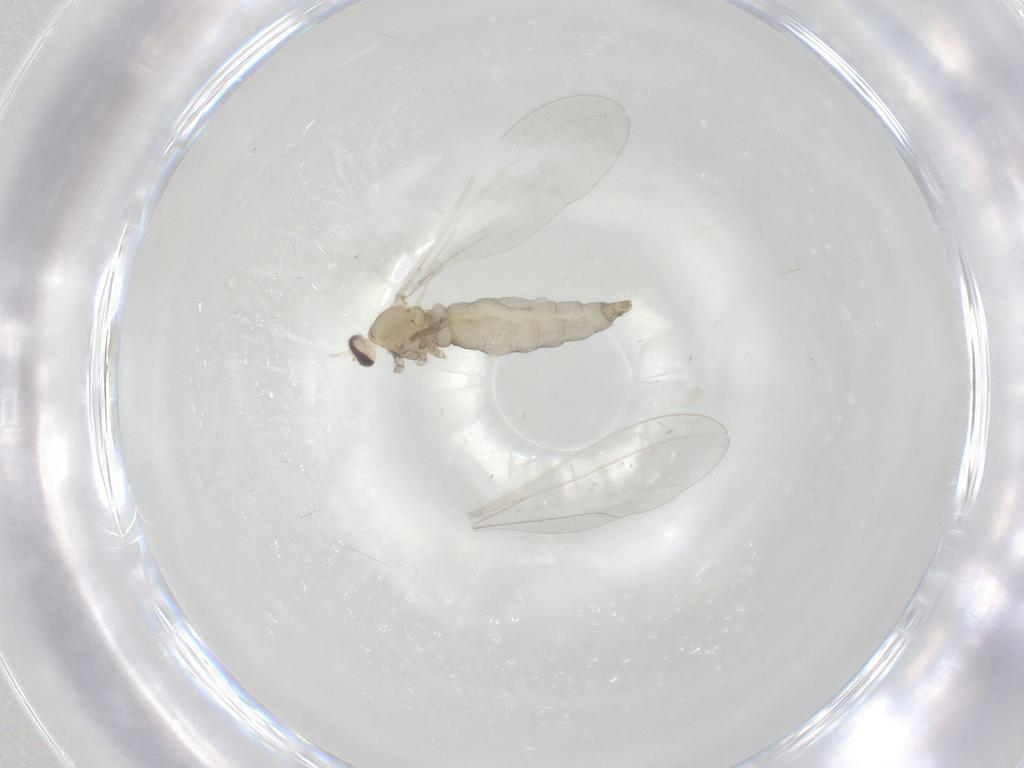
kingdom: Animalia
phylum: Arthropoda
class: Insecta
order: Diptera
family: Cecidomyiidae
